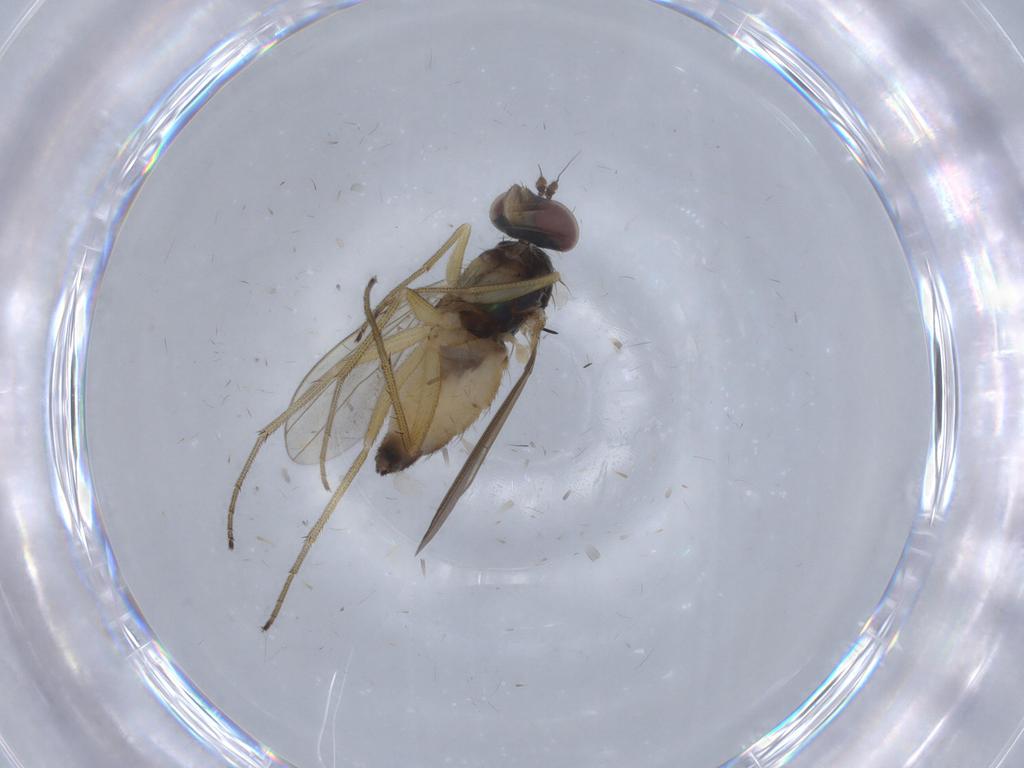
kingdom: Animalia
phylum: Arthropoda
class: Insecta
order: Diptera
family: Dolichopodidae
